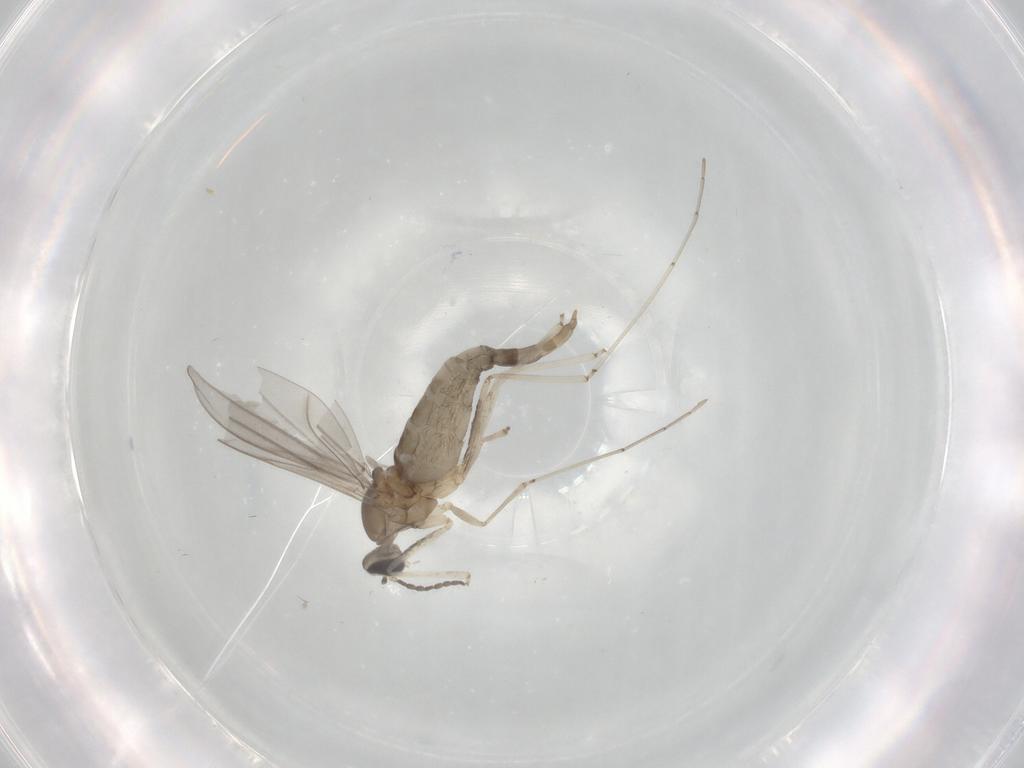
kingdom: Animalia
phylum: Arthropoda
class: Insecta
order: Diptera
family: Cecidomyiidae
